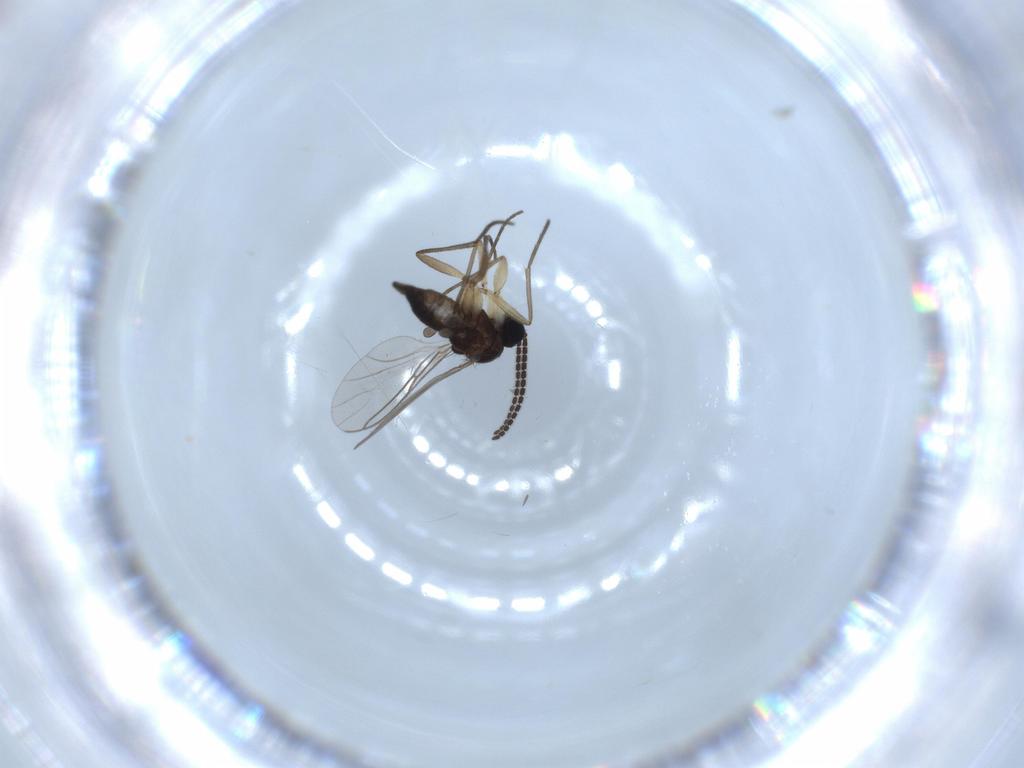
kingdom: Animalia
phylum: Arthropoda
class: Insecta
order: Diptera
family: Sciaridae
